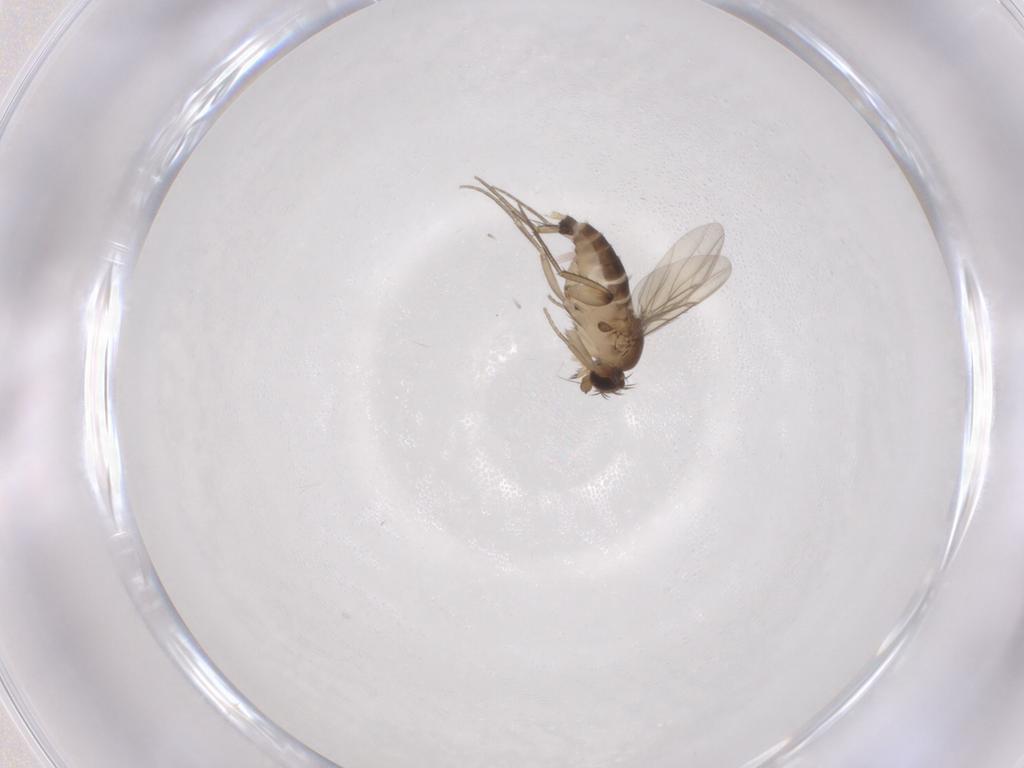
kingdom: Animalia
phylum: Arthropoda
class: Insecta
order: Diptera
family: Phoridae
